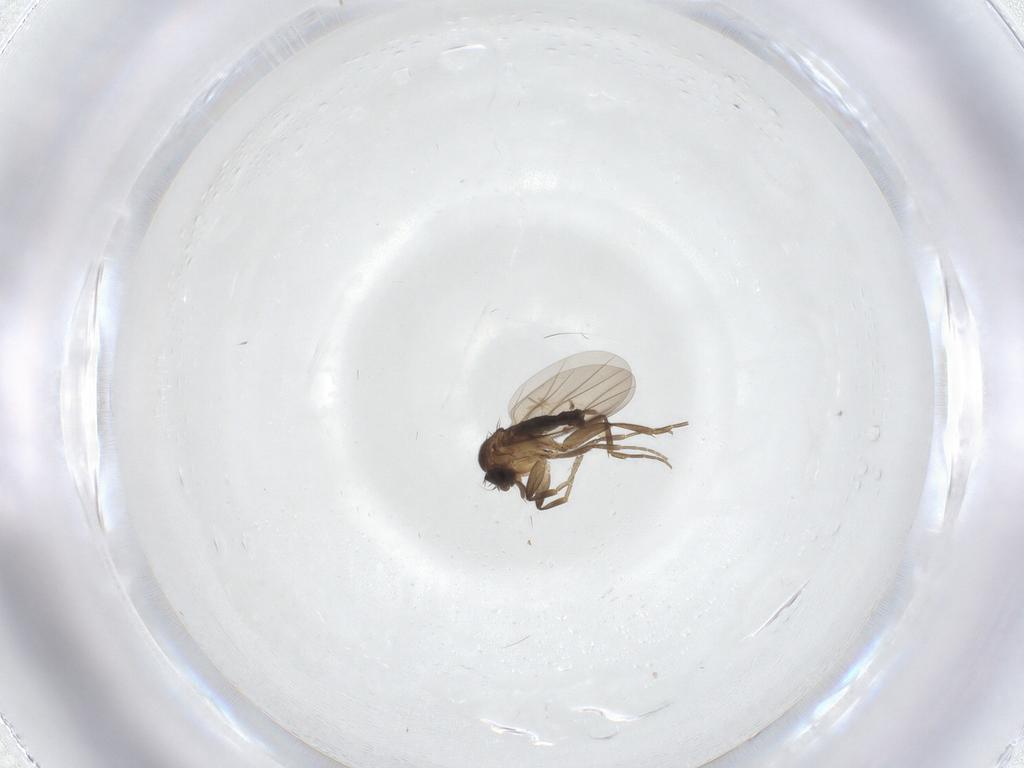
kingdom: Animalia
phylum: Arthropoda
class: Insecta
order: Diptera
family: Phoridae
